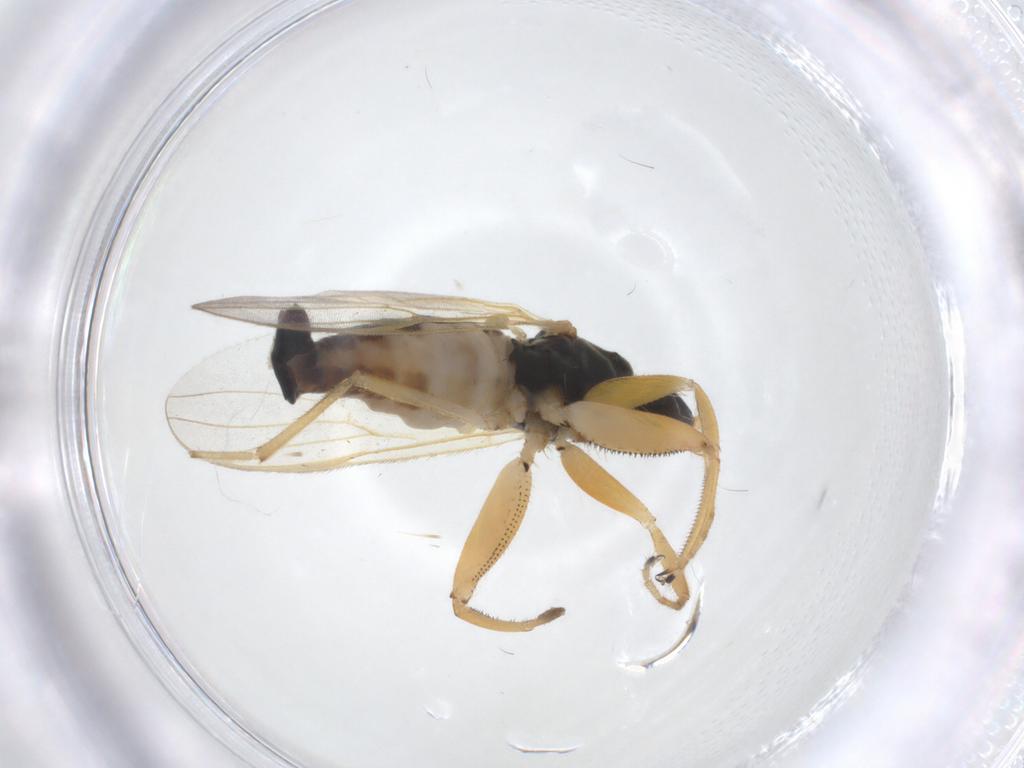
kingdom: Animalia
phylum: Arthropoda
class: Insecta
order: Diptera
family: Hybotidae
